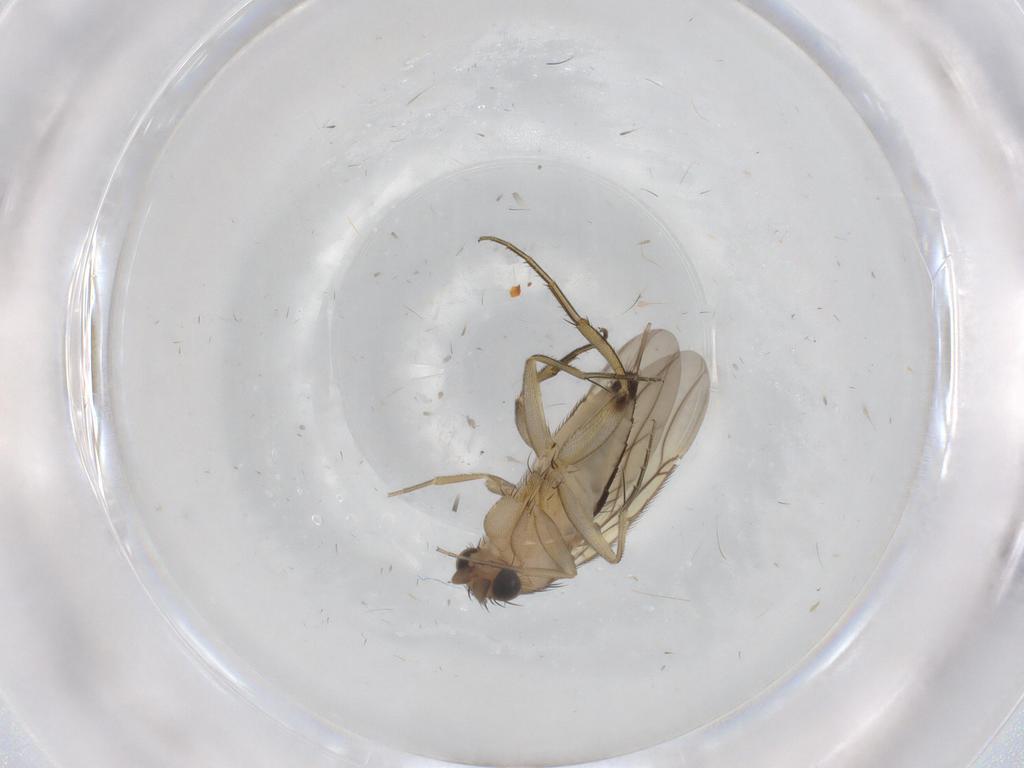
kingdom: Animalia
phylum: Arthropoda
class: Insecta
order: Diptera
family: Phoridae
